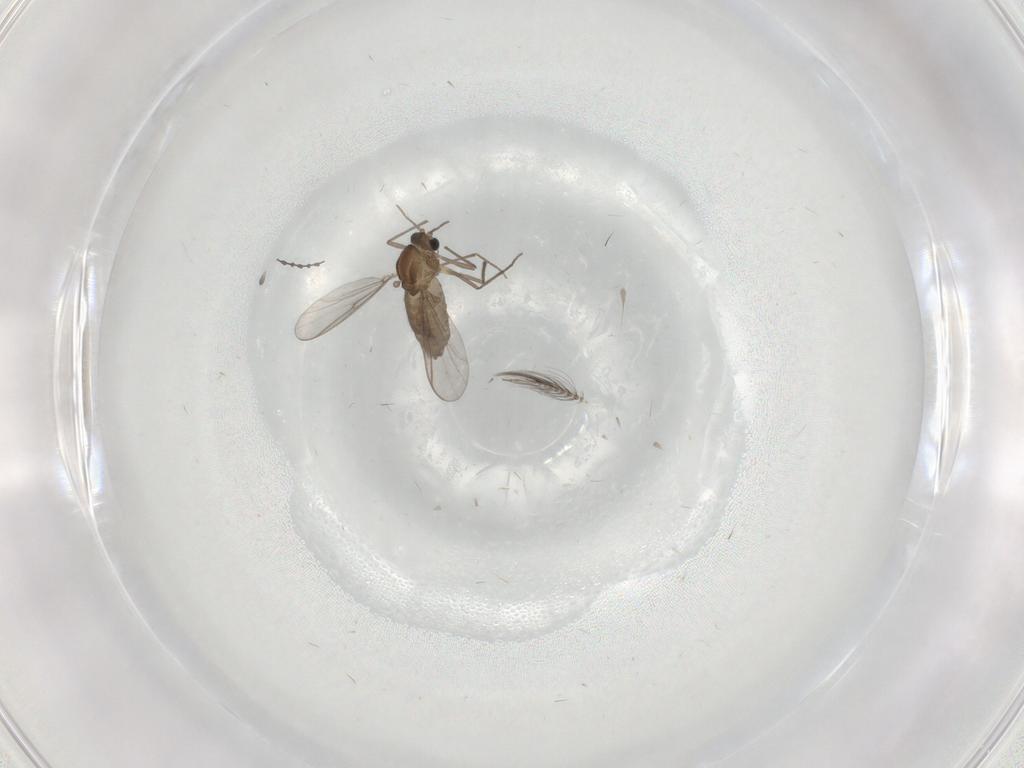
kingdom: Animalia
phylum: Arthropoda
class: Insecta
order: Diptera
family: Chironomidae
